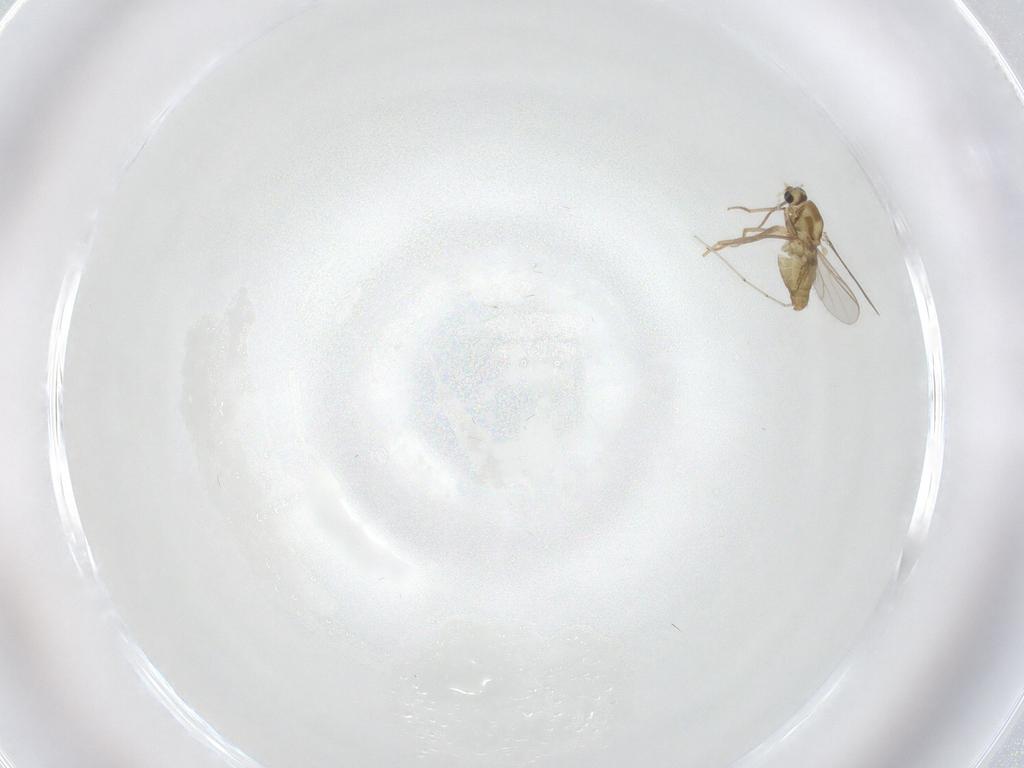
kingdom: Animalia
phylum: Arthropoda
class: Insecta
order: Diptera
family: Chironomidae
